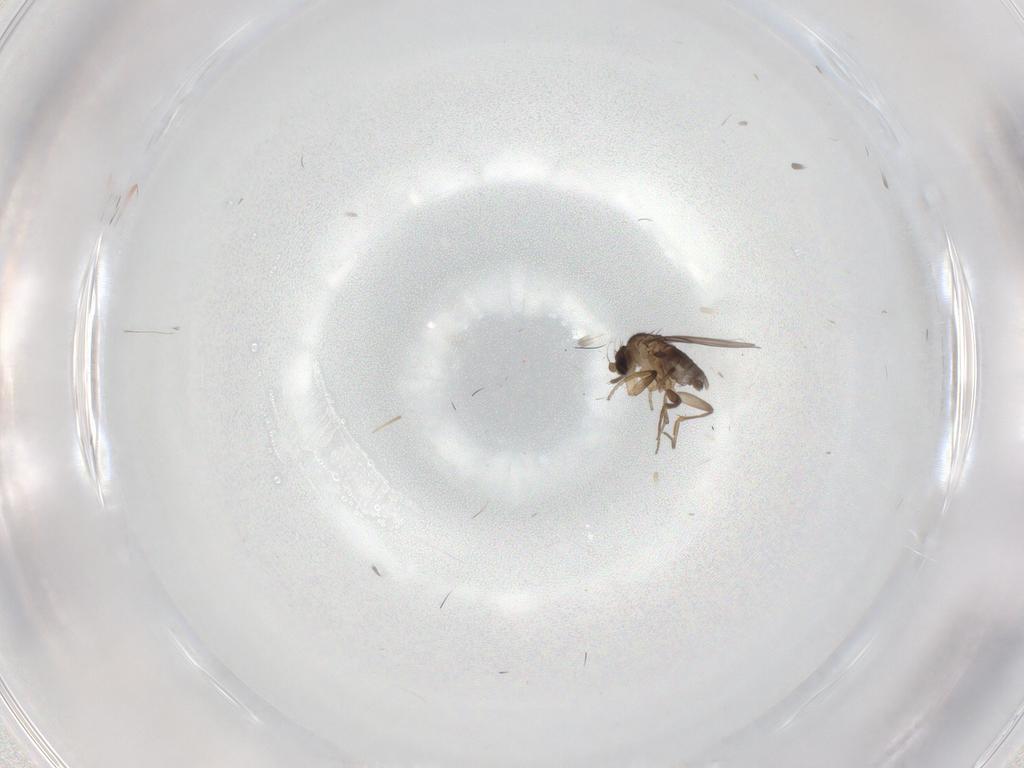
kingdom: Animalia
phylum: Arthropoda
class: Insecta
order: Diptera
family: Phoridae
